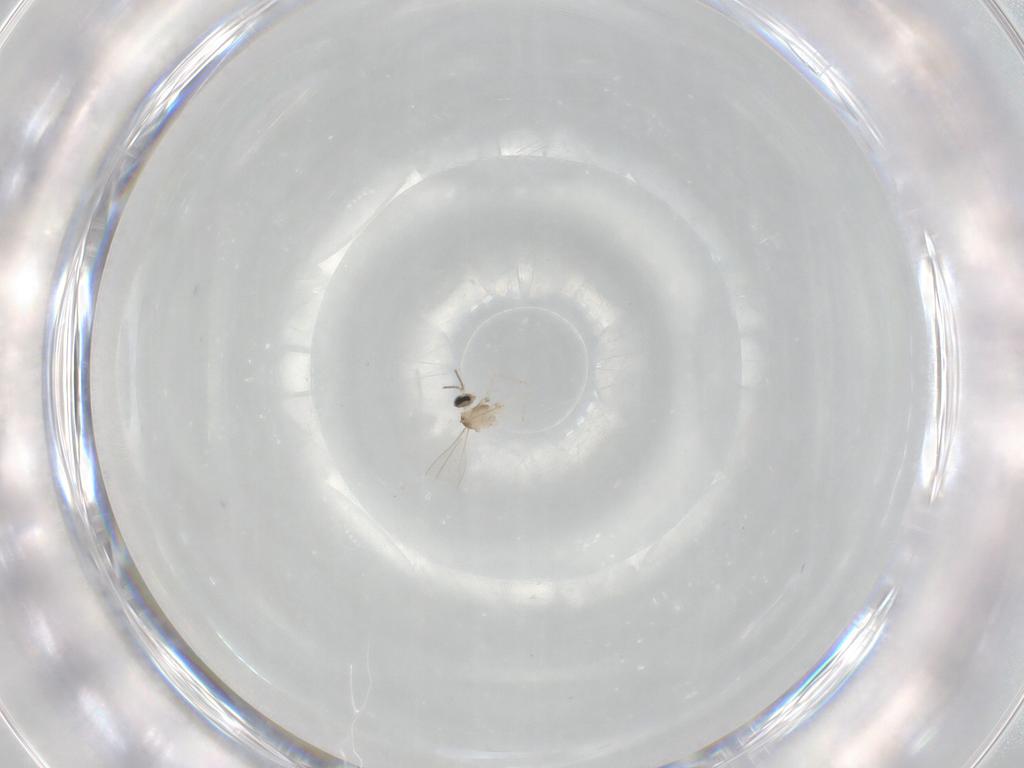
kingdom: Animalia
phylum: Arthropoda
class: Insecta
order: Diptera
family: Cecidomyiidae
